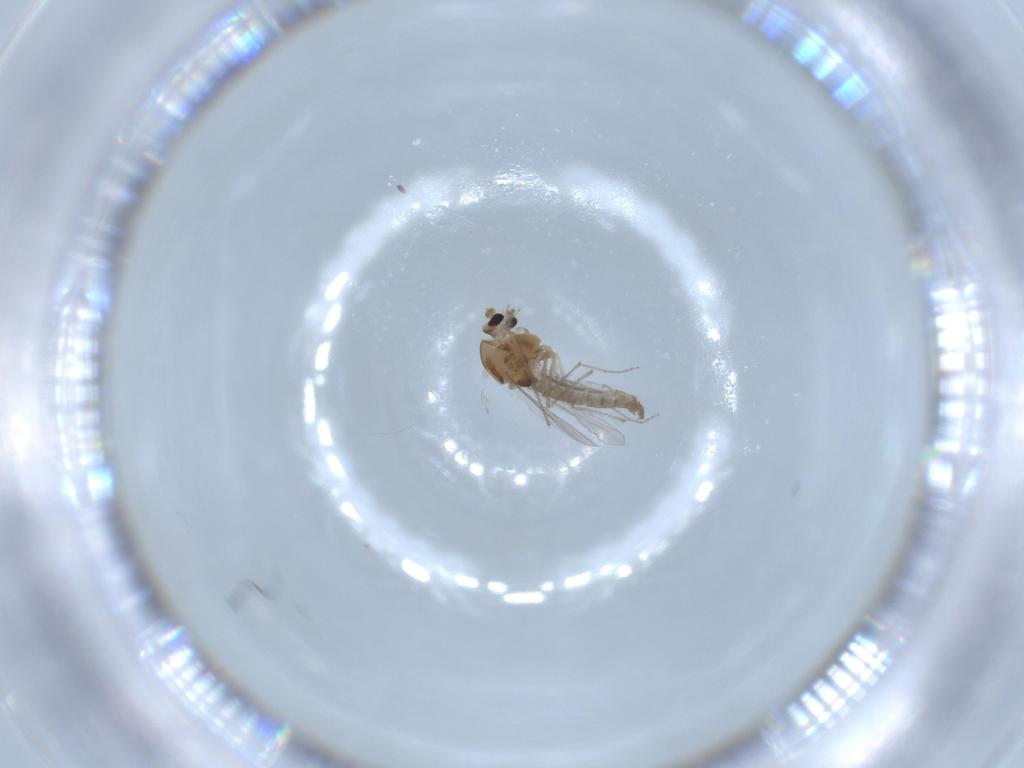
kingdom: Animalia
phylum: Arthropoda
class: Insecta
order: Diptera
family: Chironomidae
